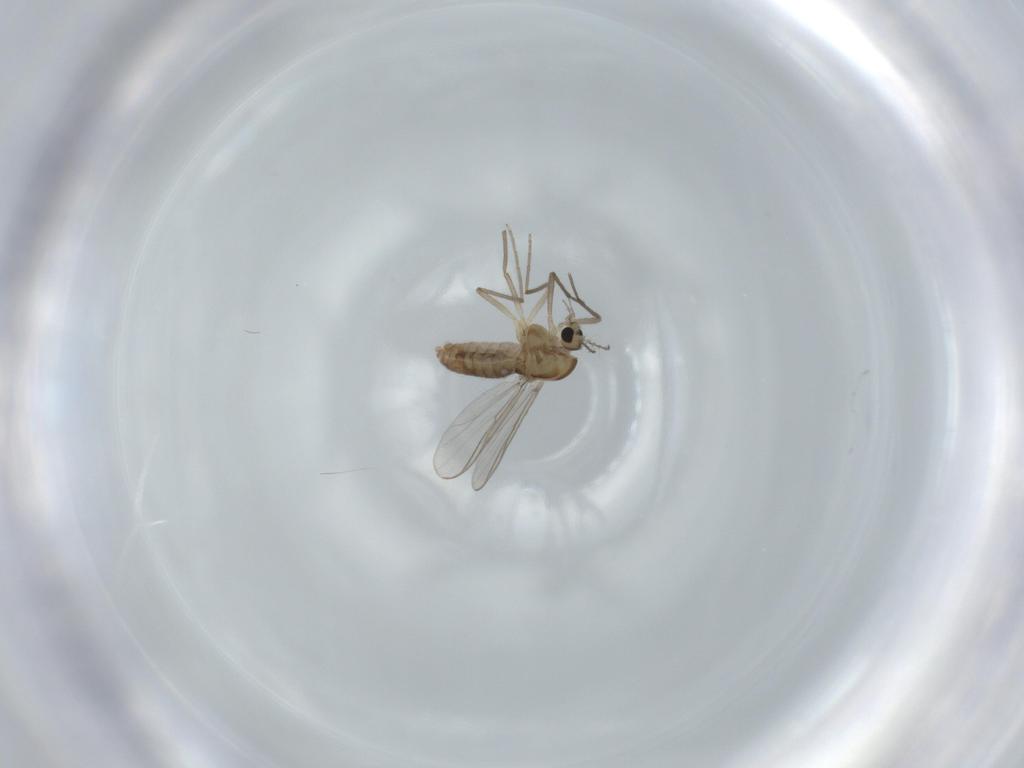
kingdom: Animalia
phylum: Arthropoda
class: Insecta
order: Diptera
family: Chironomidae
